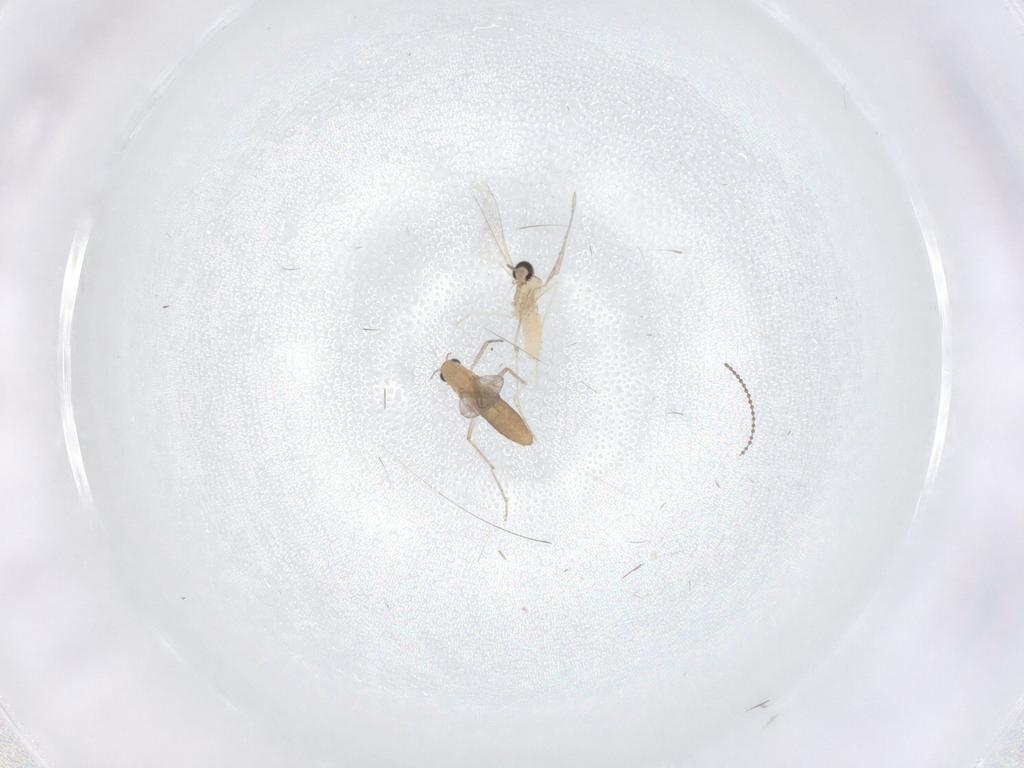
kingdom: Animalia
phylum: Arthropoda
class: Insecta
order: Diptera
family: Chironomidae
